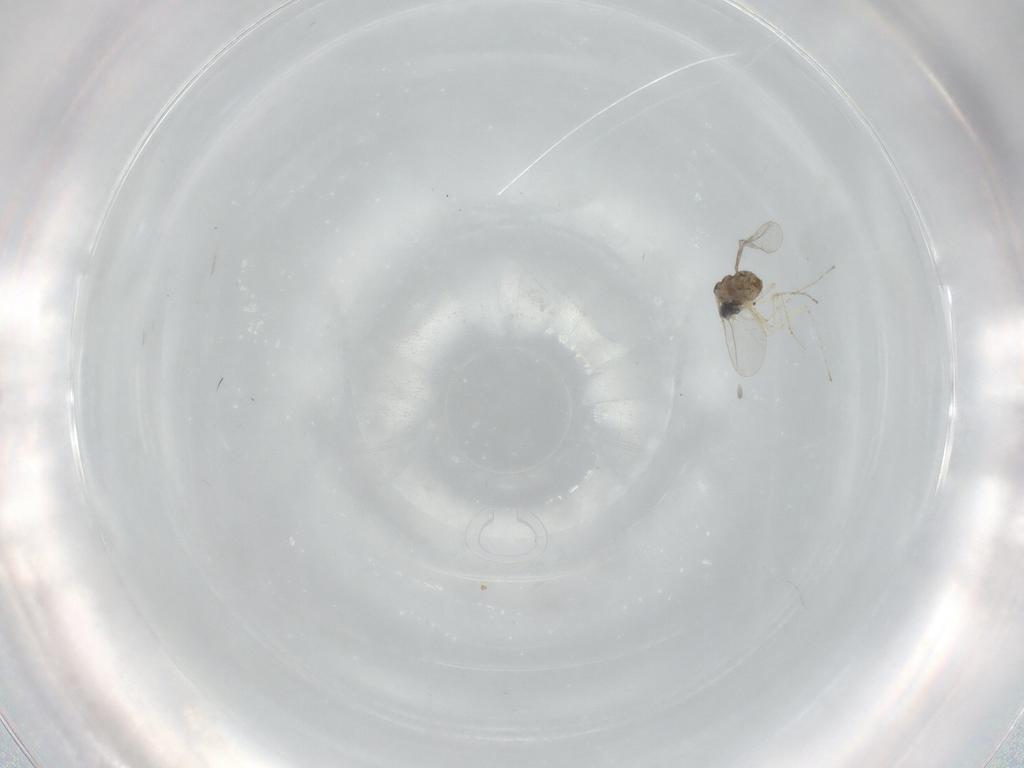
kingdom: Animalia
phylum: Arthropoda
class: Insecta
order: Diptera
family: Cecidomyiidae
